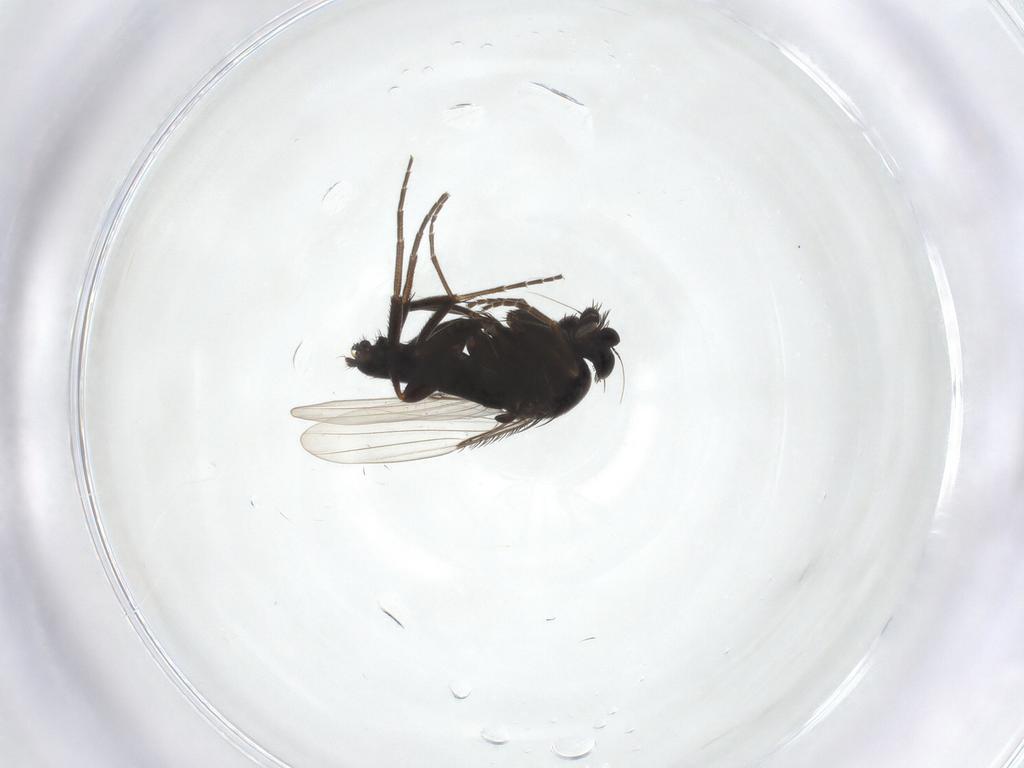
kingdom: Animalia
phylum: Arthropoda
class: Insecta
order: Diptera
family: Phoridae
